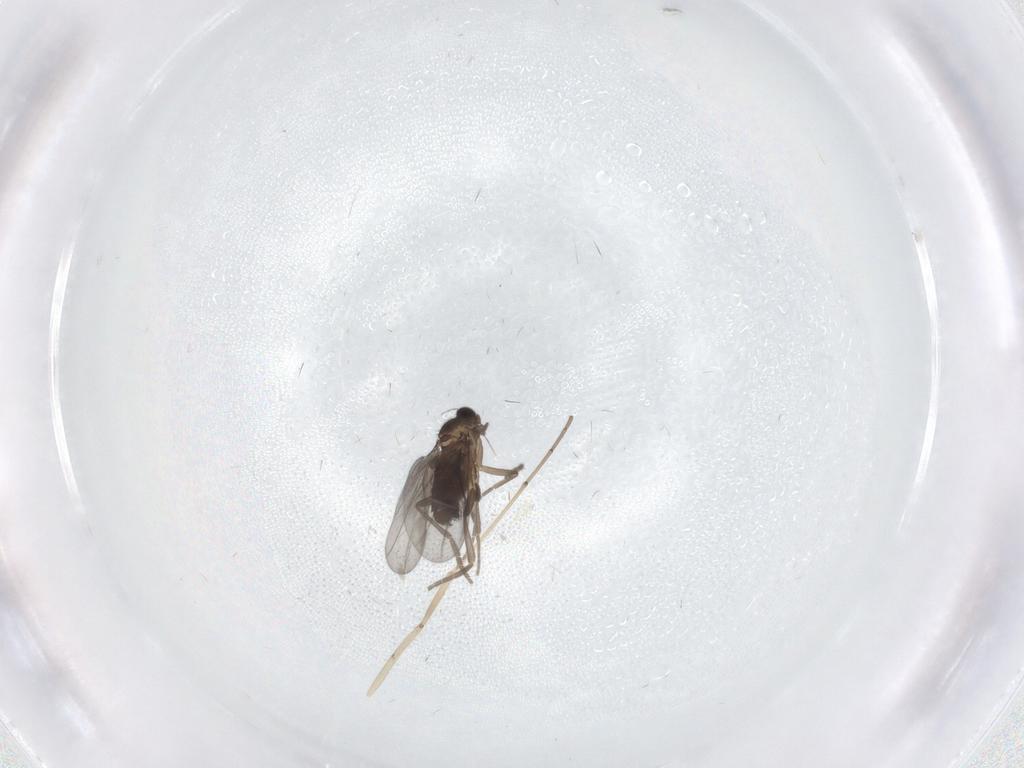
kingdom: Animalia
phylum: Arthropoda
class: Insecta
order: Diptera
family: Cecidomyiidae
